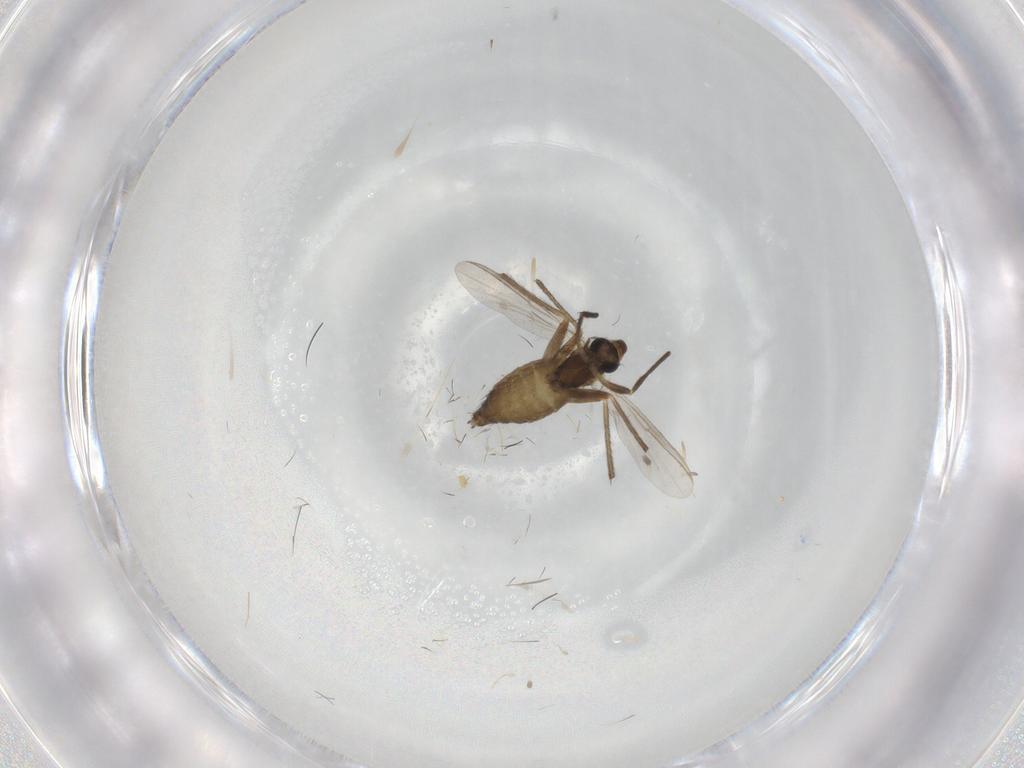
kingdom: Animalia
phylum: Arthropoda
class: Insecta
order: Diptera
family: Chironomidae
